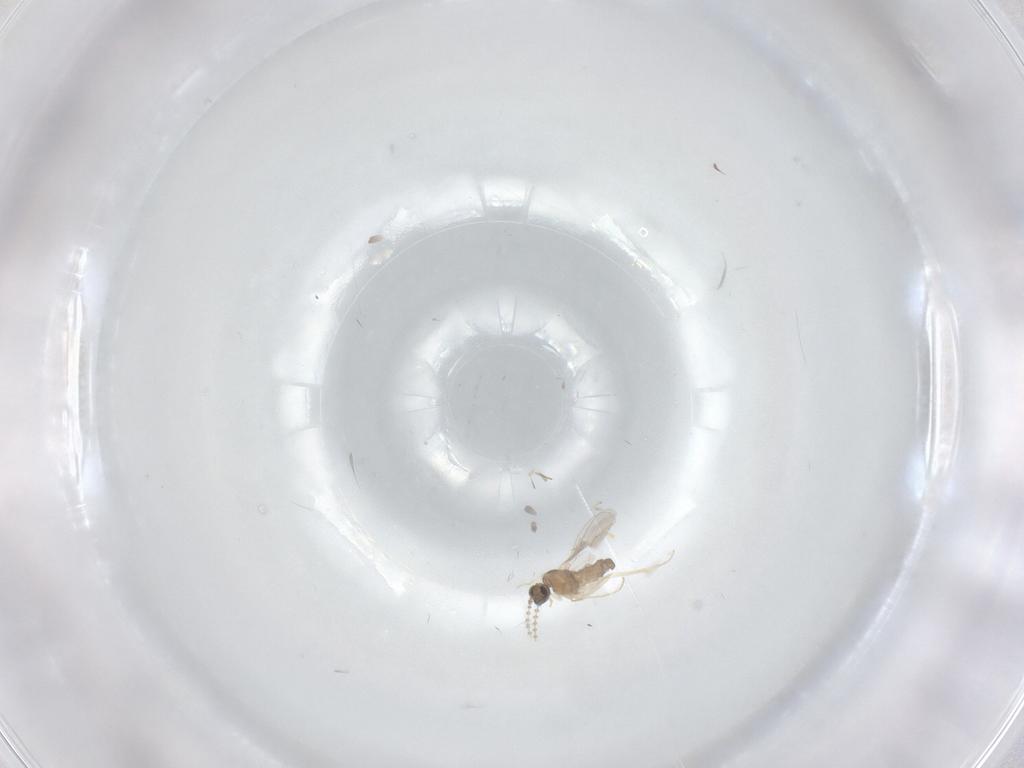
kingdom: Animalia
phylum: Arthropoda
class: Insecta
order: Diptera
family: Cecidomyiidae
